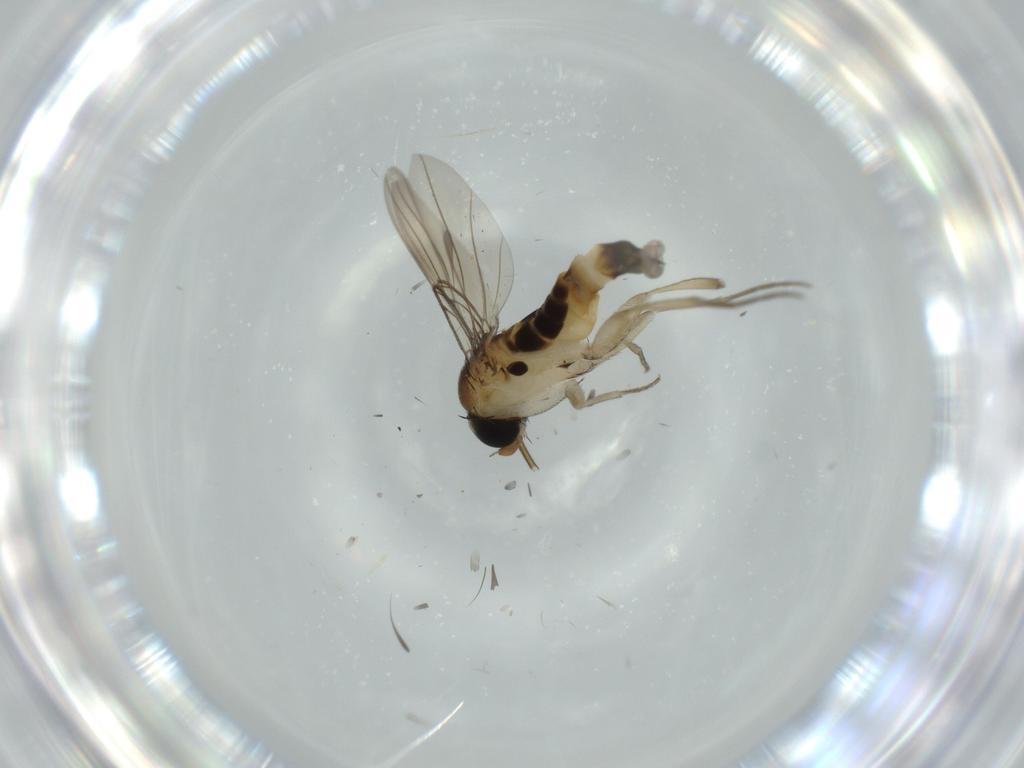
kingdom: Animalia
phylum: Arthropoda
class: Insecta
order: Diptera
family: Phoridae
